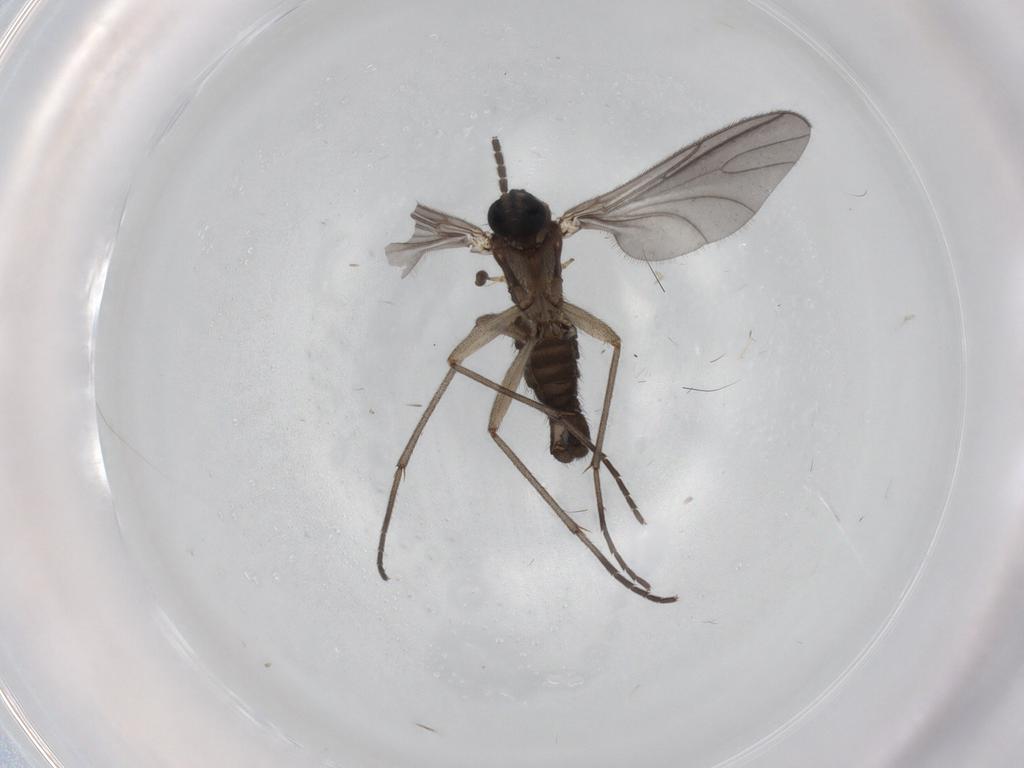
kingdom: Animalia
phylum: Arthropoda
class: Insecta
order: Diptera
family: Sciaridae
